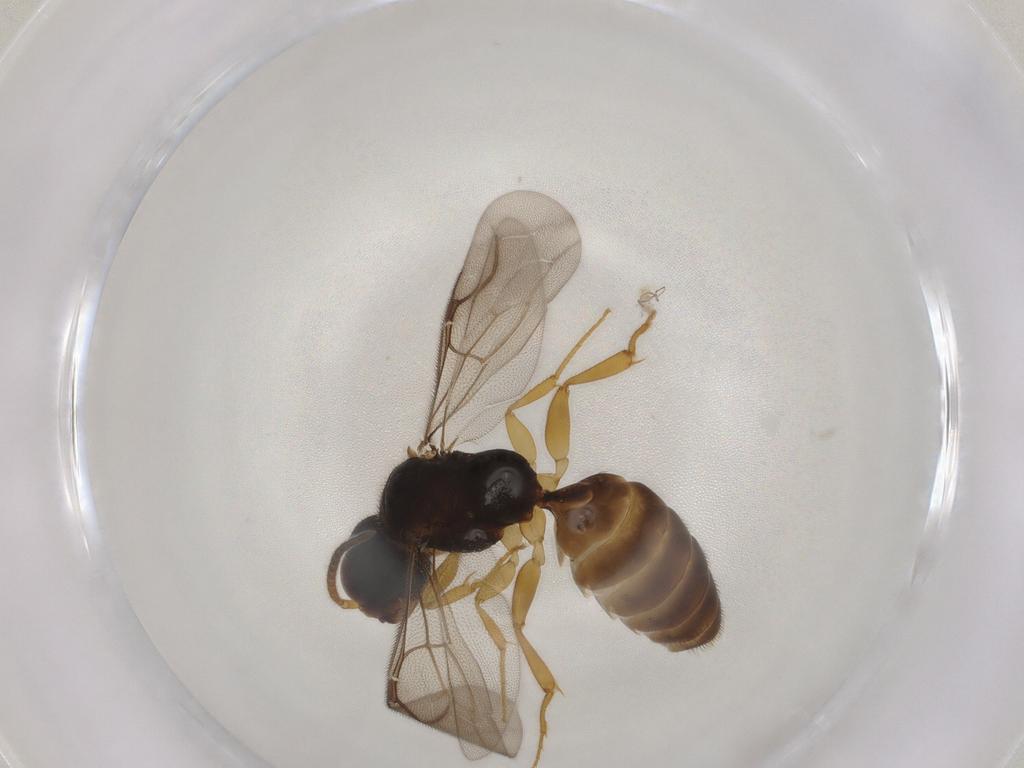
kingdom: Animalia
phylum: Arthropoda
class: Insecta
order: Hymenoptera
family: Bethylidae
